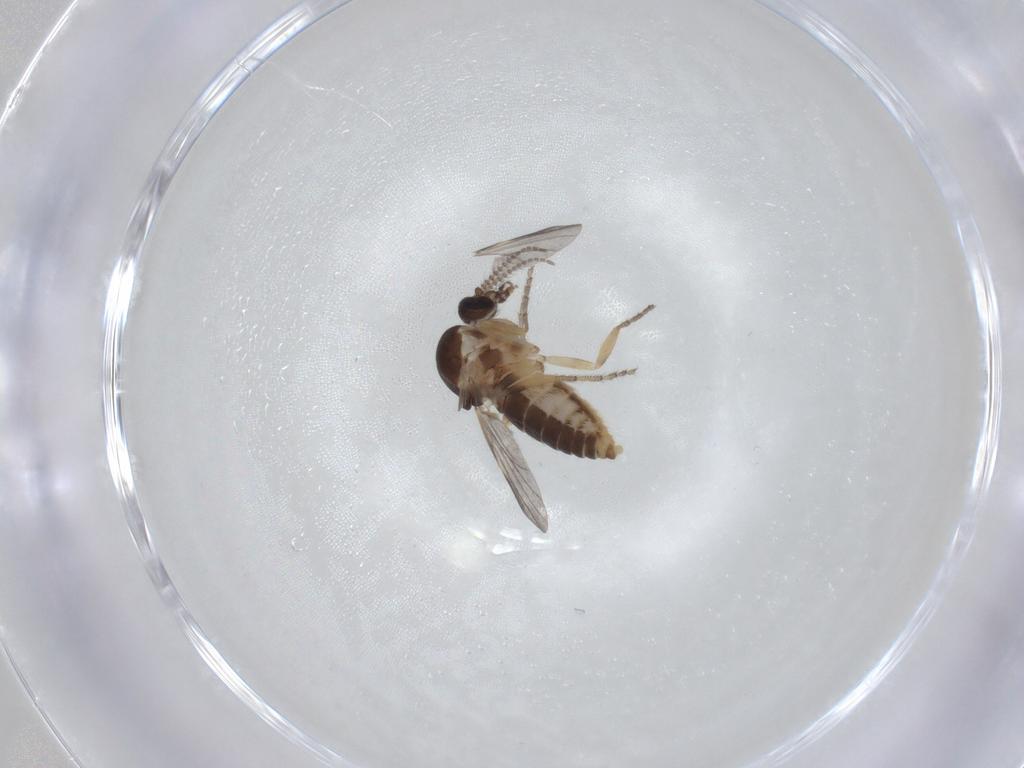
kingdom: Animalia
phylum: Arthropoda
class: Insecta
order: Diptera
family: Ceratopogonidae
